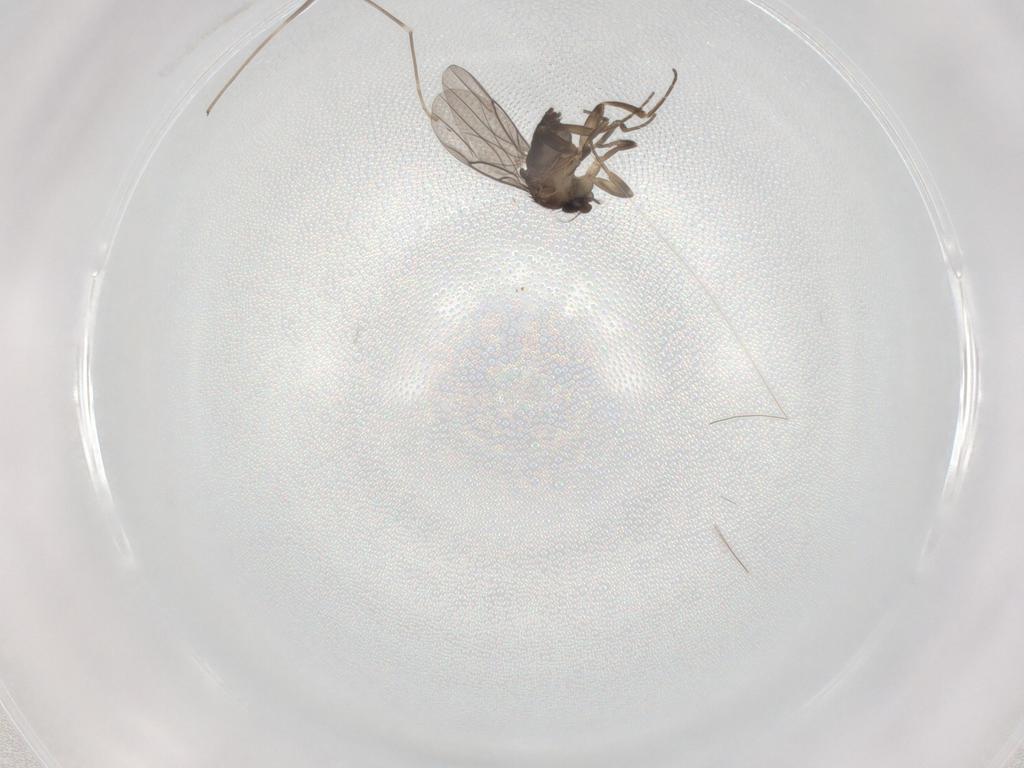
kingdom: Animalia
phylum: Arthropoda
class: Insecta
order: Diptera
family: Limoniidae
